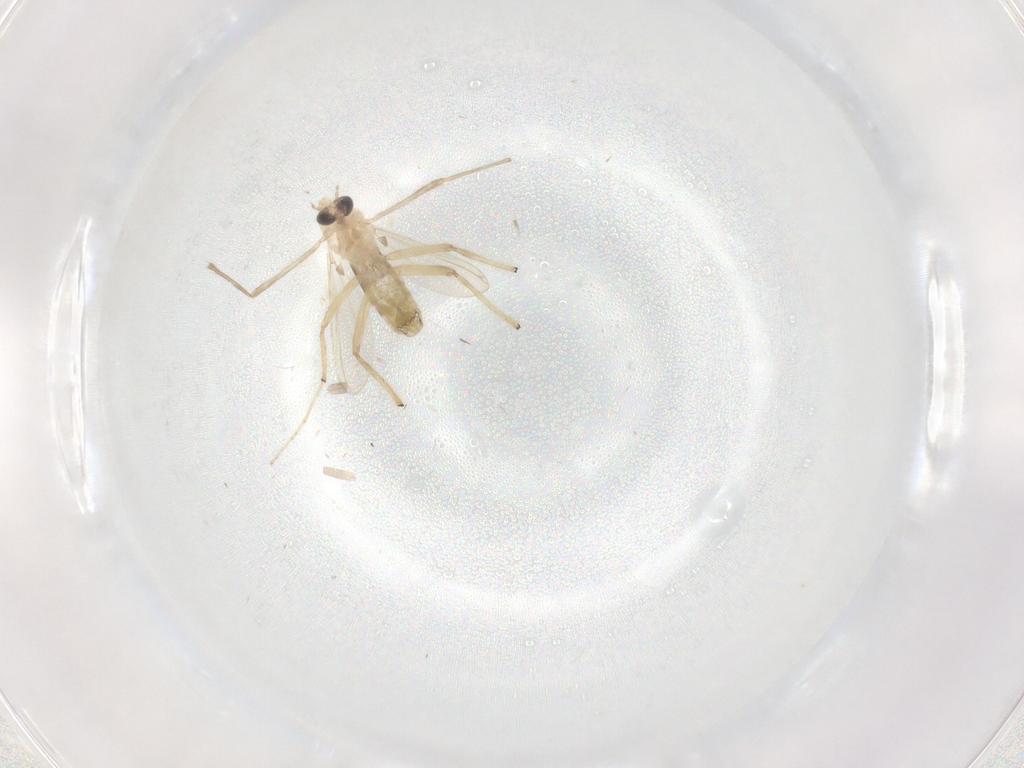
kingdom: Animalia
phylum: Arthropoda
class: Insecta
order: Diptera
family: Chironomidae
